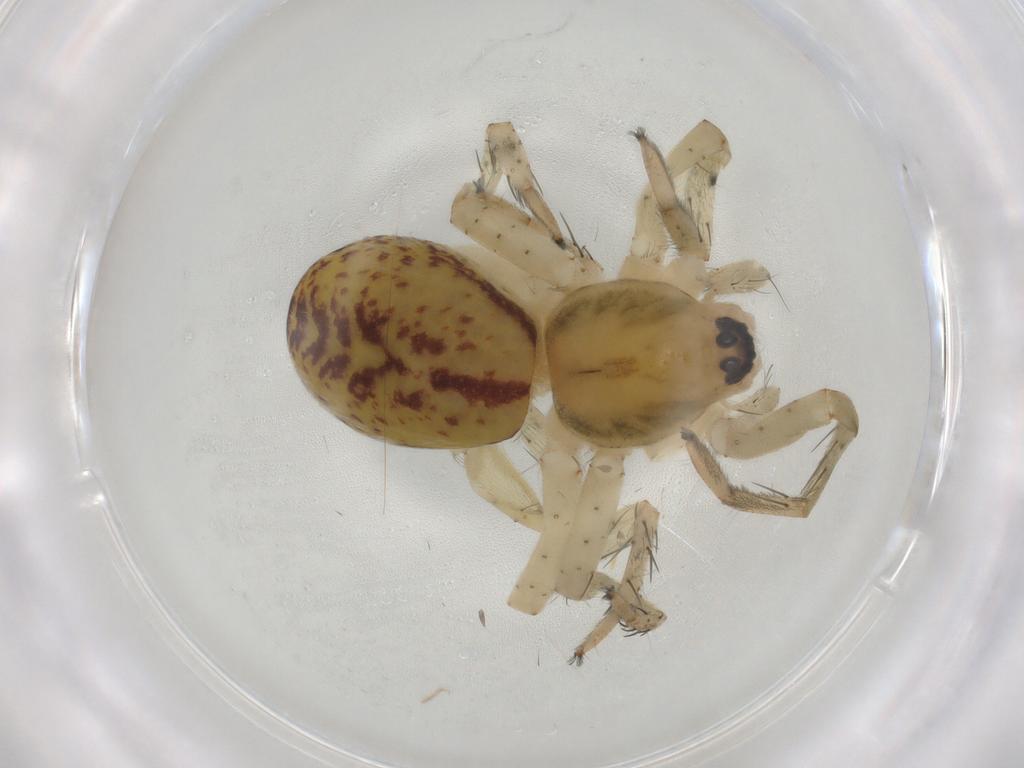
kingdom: Animalia
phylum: Arthropoda
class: Arachnida
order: Araneae
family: Anyphaenidae
